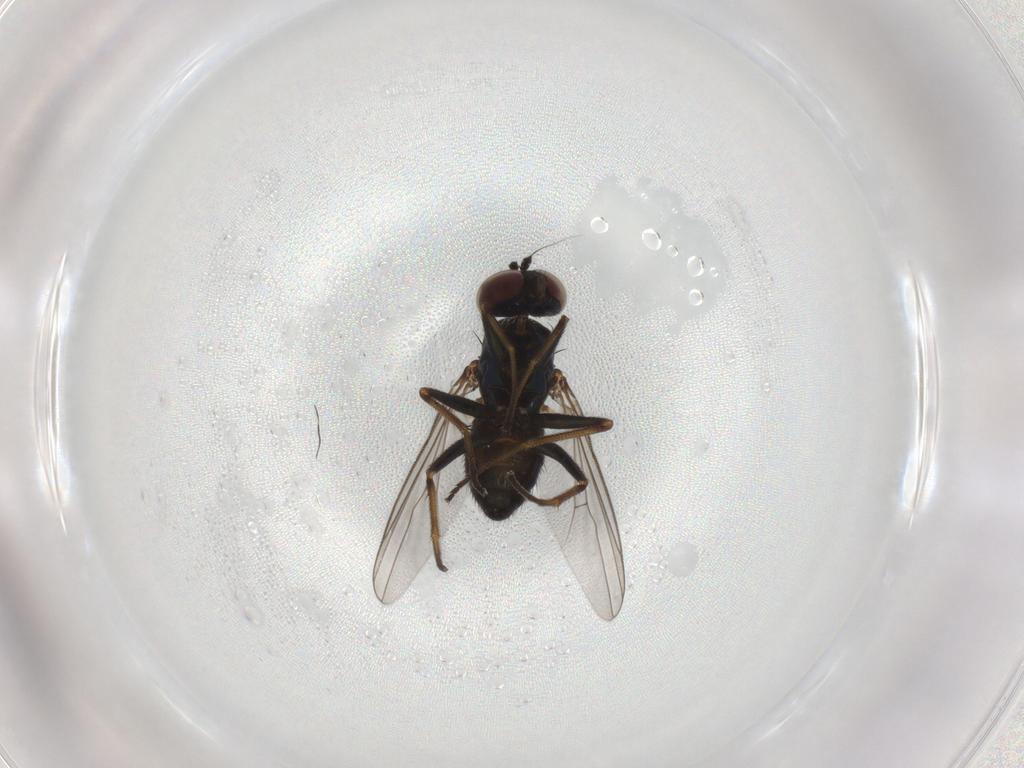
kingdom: Animalia
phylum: Arthropoda
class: Insecta
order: Diptera
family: Dolichopodidae
